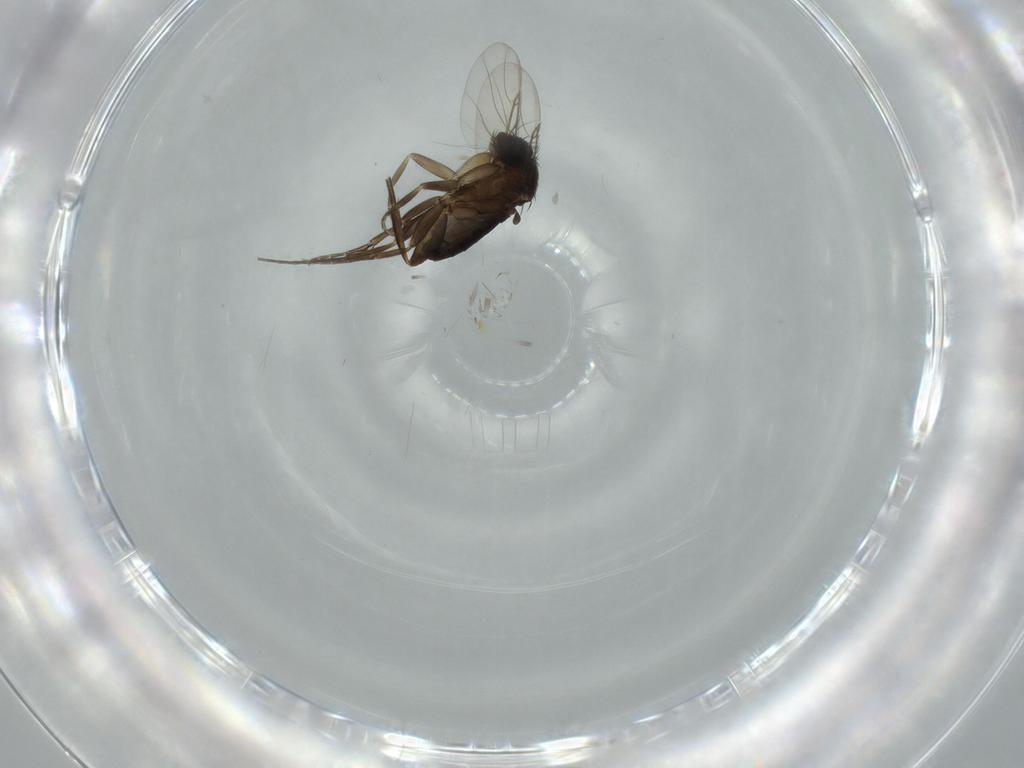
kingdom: Animalia
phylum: Arthropoda
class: Insecta
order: Diptera
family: Phoridae
